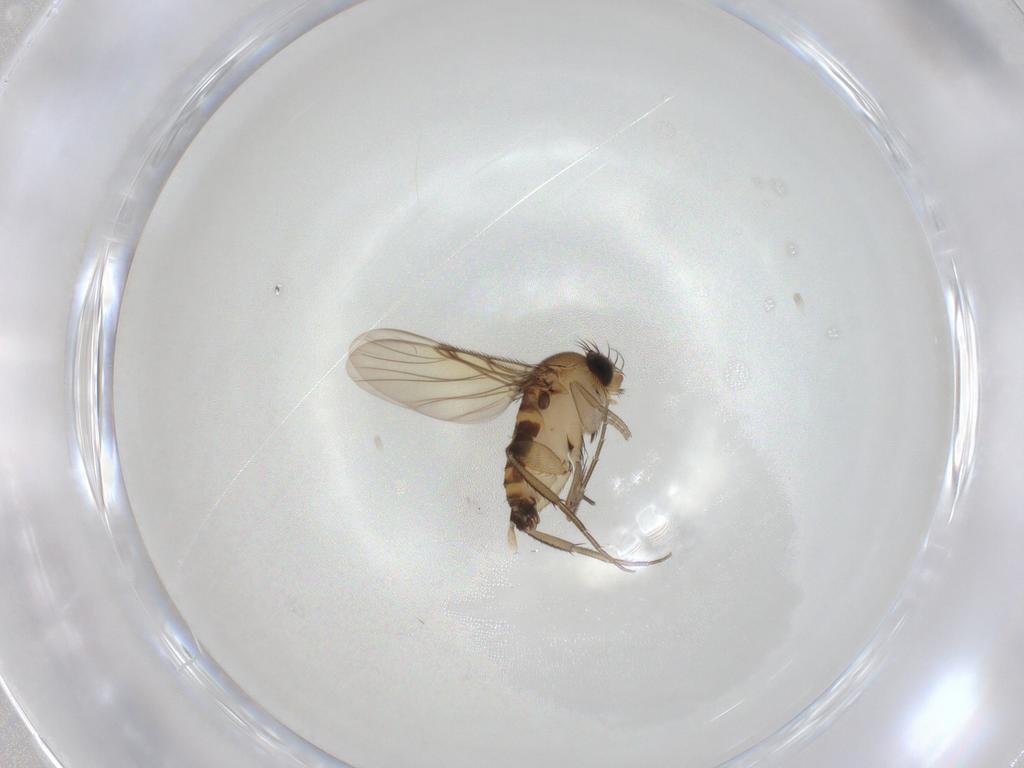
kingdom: Animalia
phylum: Arthropoda
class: Insecta
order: Diptera
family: Phoridae
